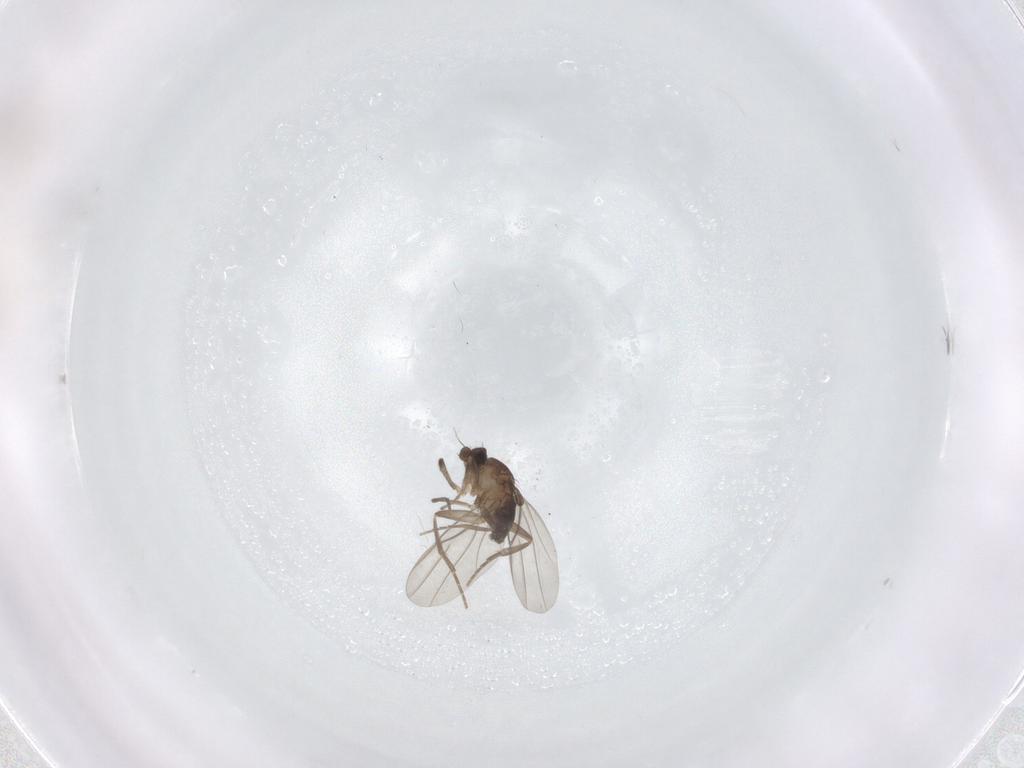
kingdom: Animalia
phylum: Arthropoda
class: Insecta
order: Diptera
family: Phoridae
